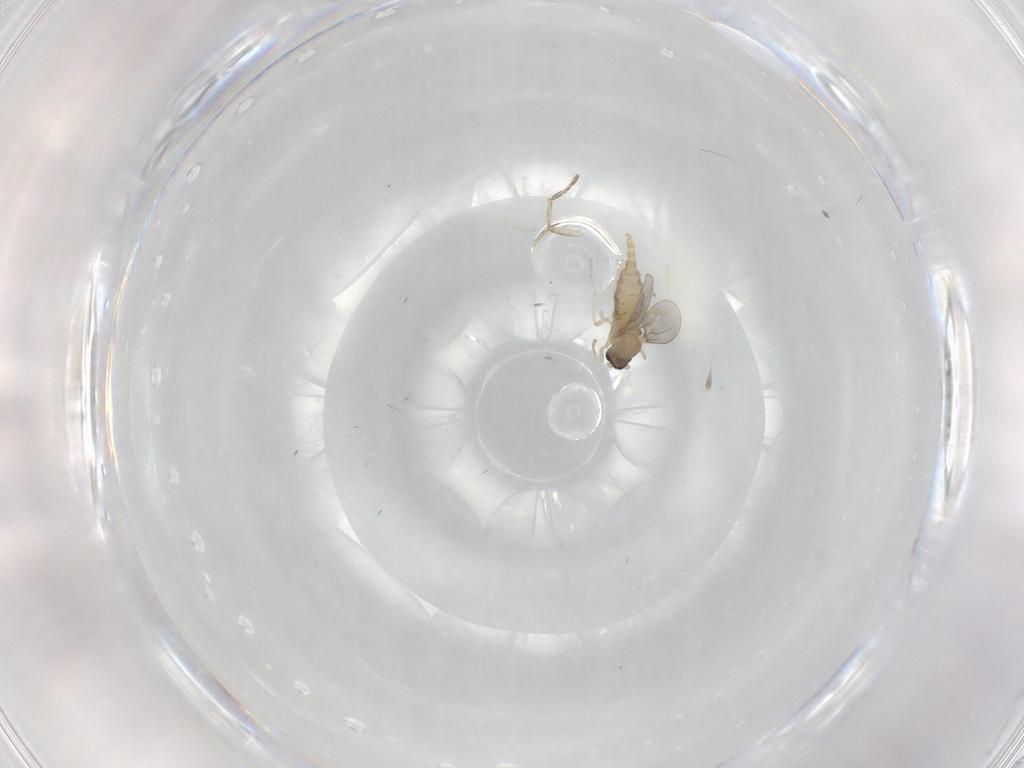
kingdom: Animalia
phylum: Arthropoda
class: Insecta
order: Diptera
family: Cecidomyiidae
